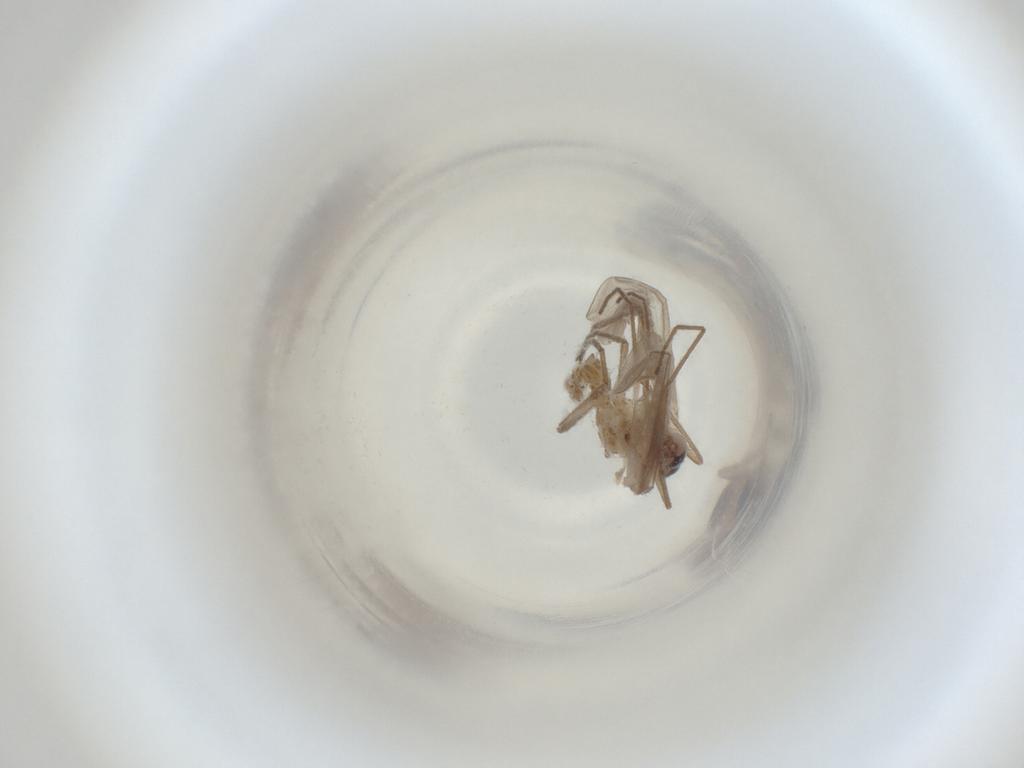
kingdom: Animalia
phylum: Arthropoda
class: Insecta
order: Diptera
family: Cecidomyiidae
